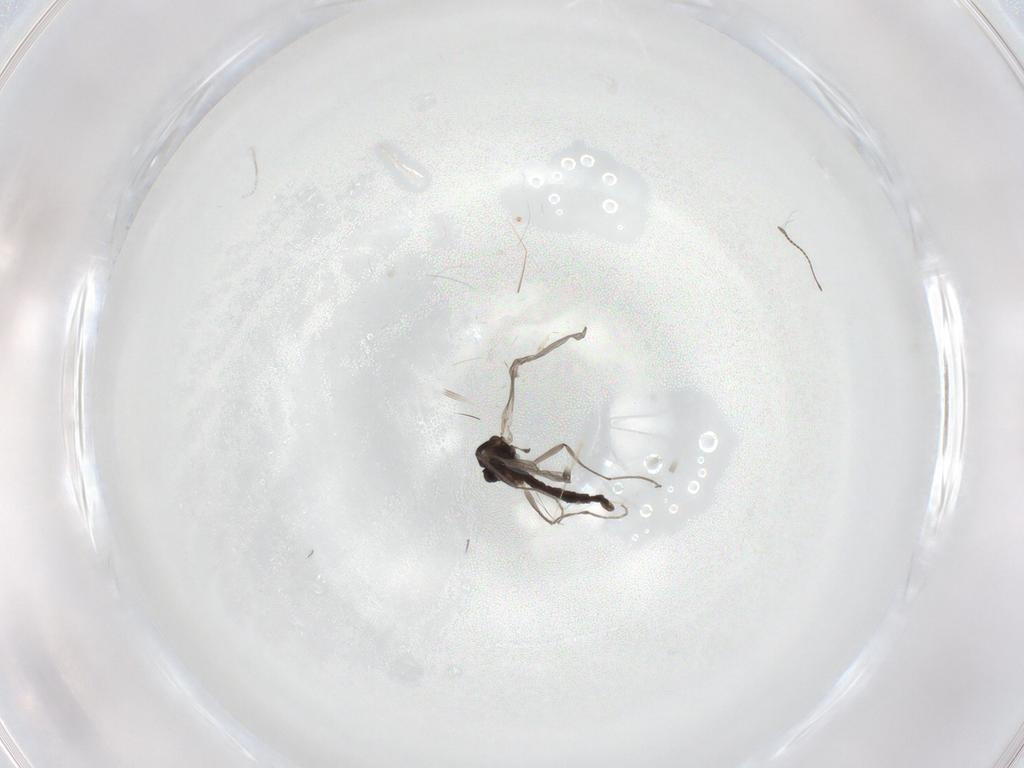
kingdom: Animalia
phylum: Arthropoda
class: Insecta
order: Diptera
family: Chironomidae
